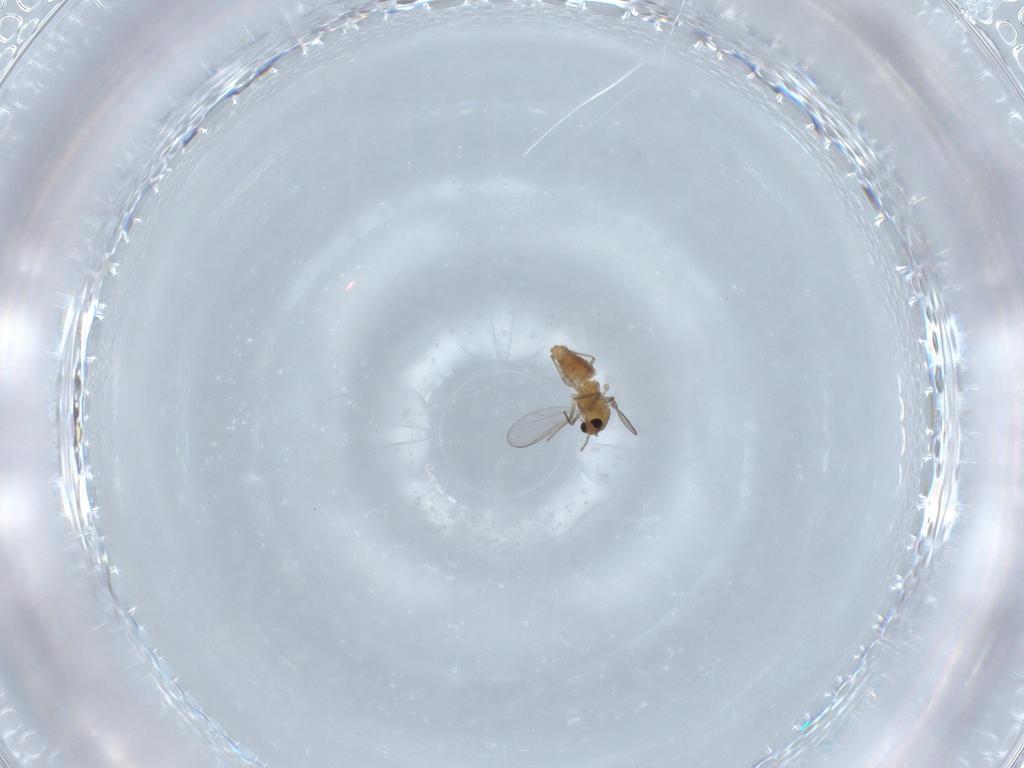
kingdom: Animalia
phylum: Arthropoda
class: Insecta
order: Diptera
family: Chironomidae
